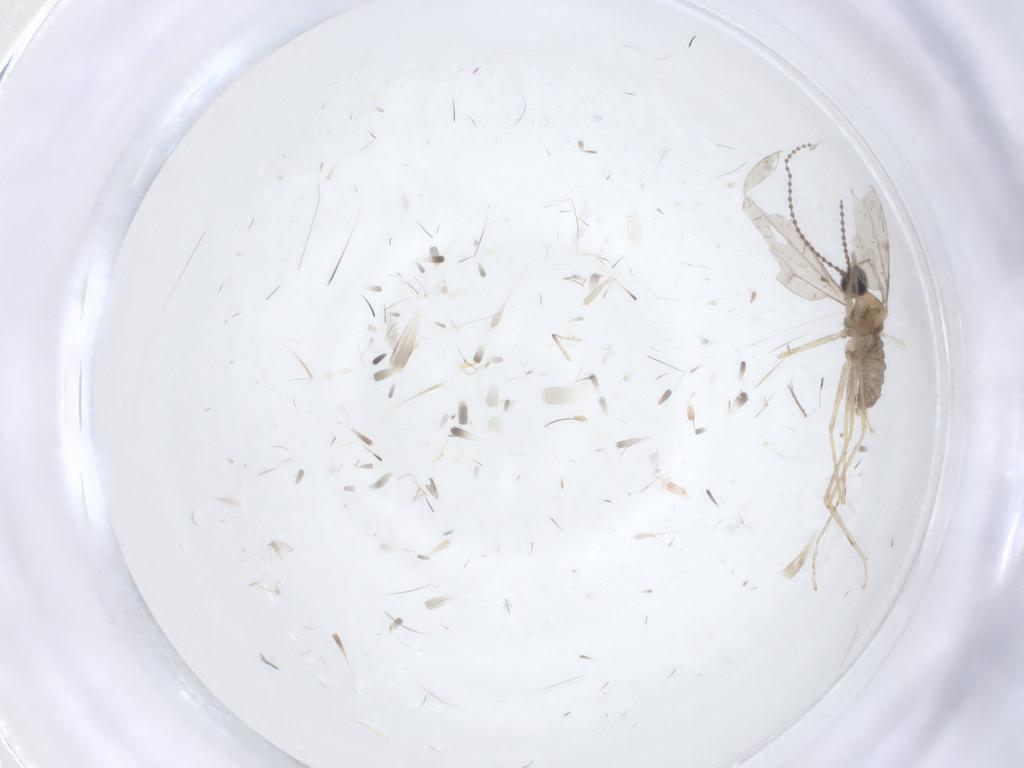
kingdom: Animalia
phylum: Arthropoda
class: Insecta
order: Diptera
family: Cecidomyiidae
